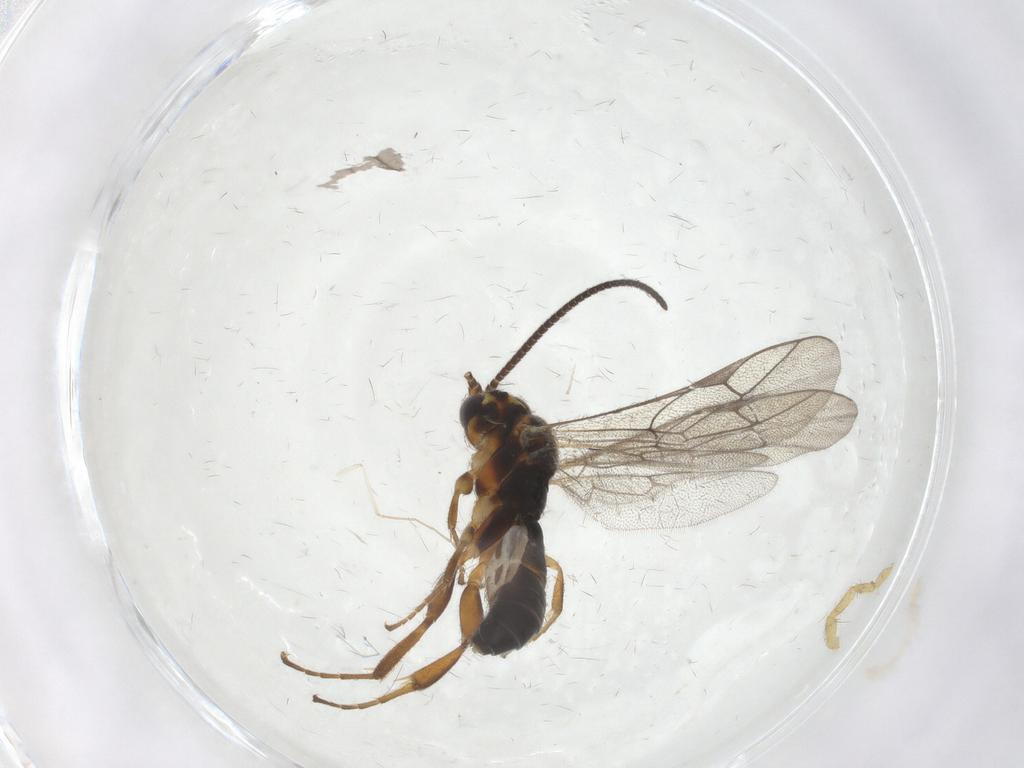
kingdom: Animalia
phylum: Arthropoda
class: Insecta
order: Hymenoptera
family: Ichneumonidae
